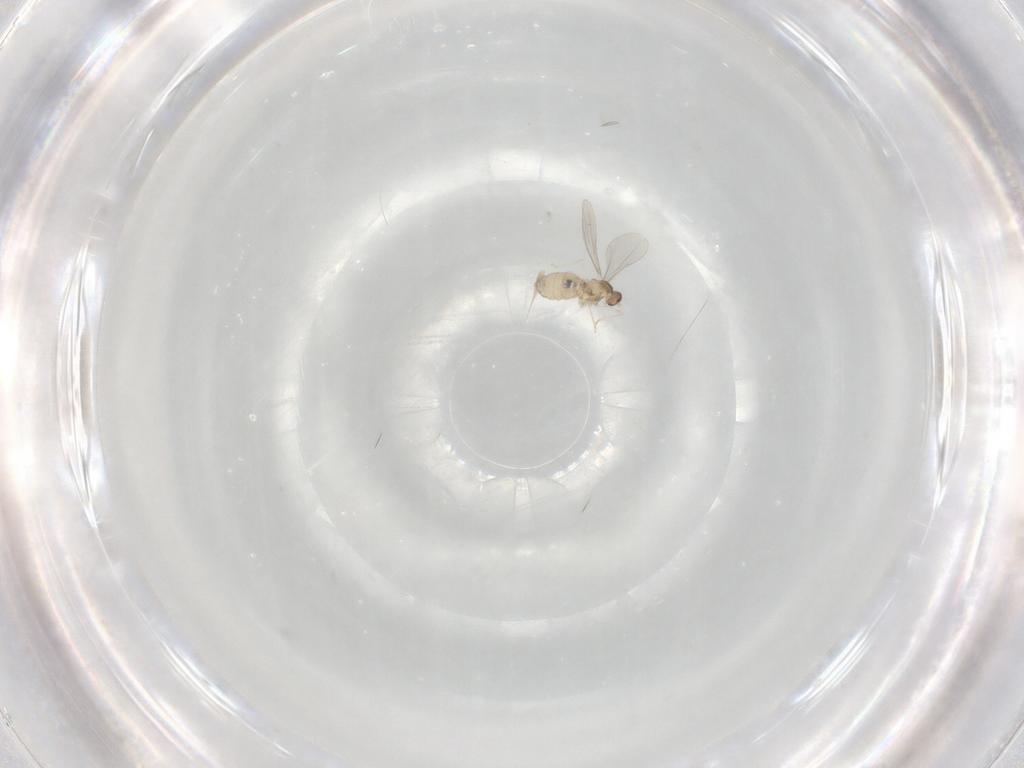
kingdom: Animalia
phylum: Arthropoda
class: Insecta
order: Diptera
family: Cecidomyiidae
